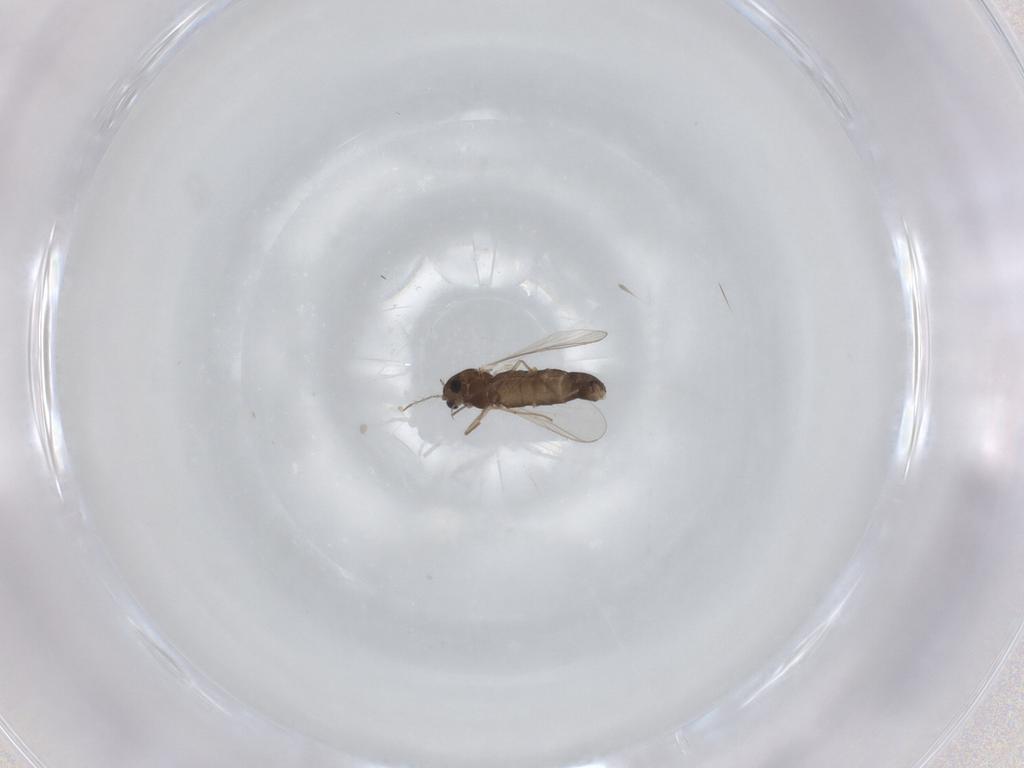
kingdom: Animalia
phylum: Arthropoda
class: Insecta
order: Diptera
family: Chironomidae
